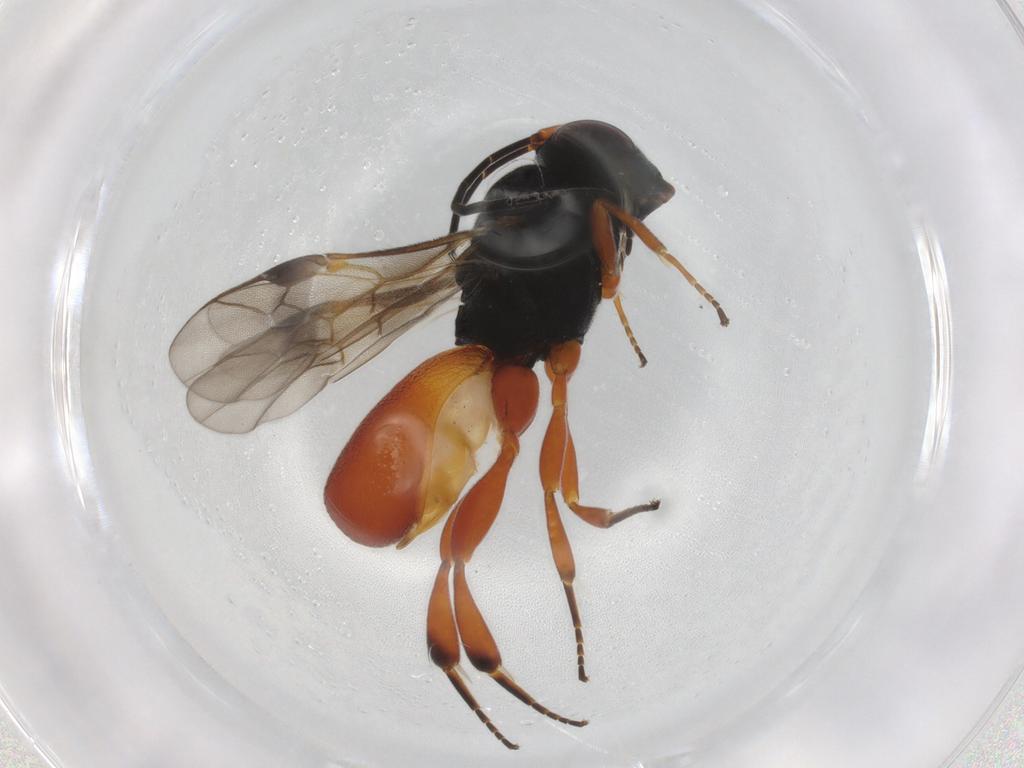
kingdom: Animalia
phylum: Arthropoda
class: Insecta
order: Hymenoptera
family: Braconidae
